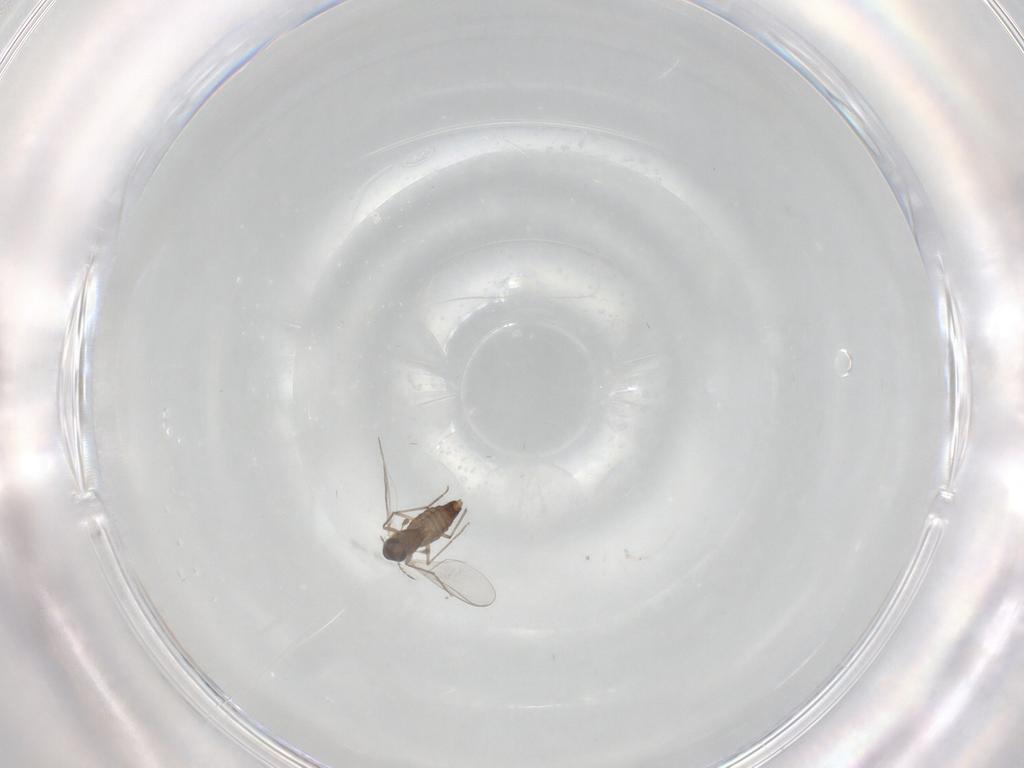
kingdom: Animalia
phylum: Arthropoda
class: Insecta
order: Diptera
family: Chironomidae
